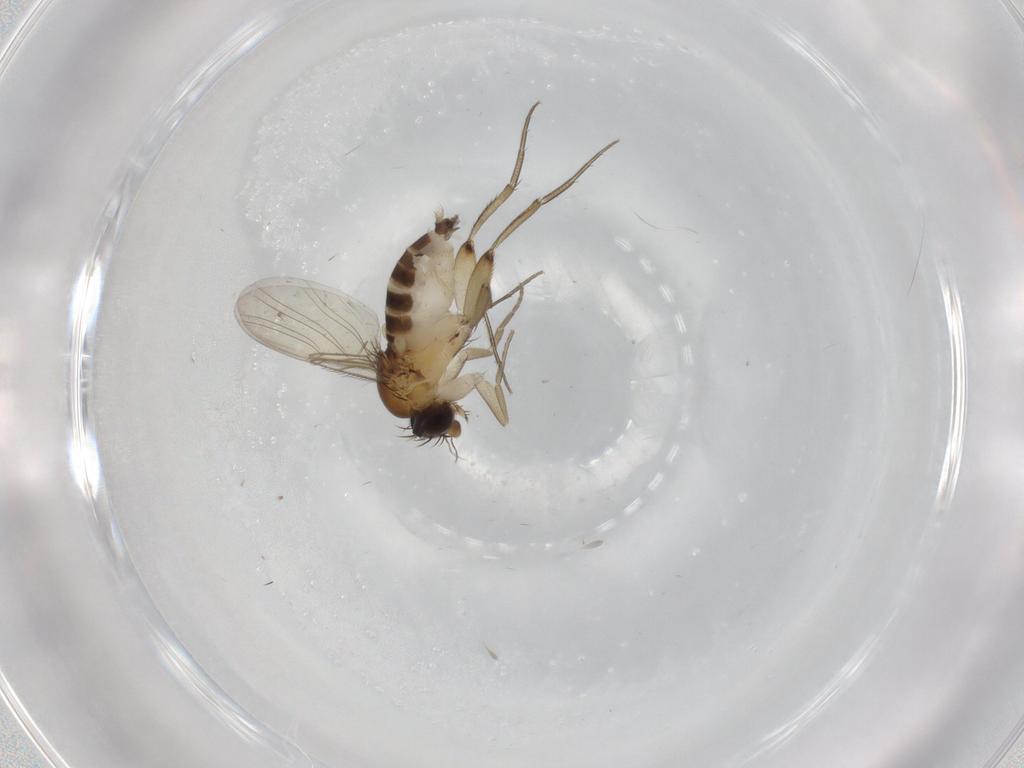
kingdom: Animalia
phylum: Arthropoda
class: Insecta
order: Diptera
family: Phoridae
